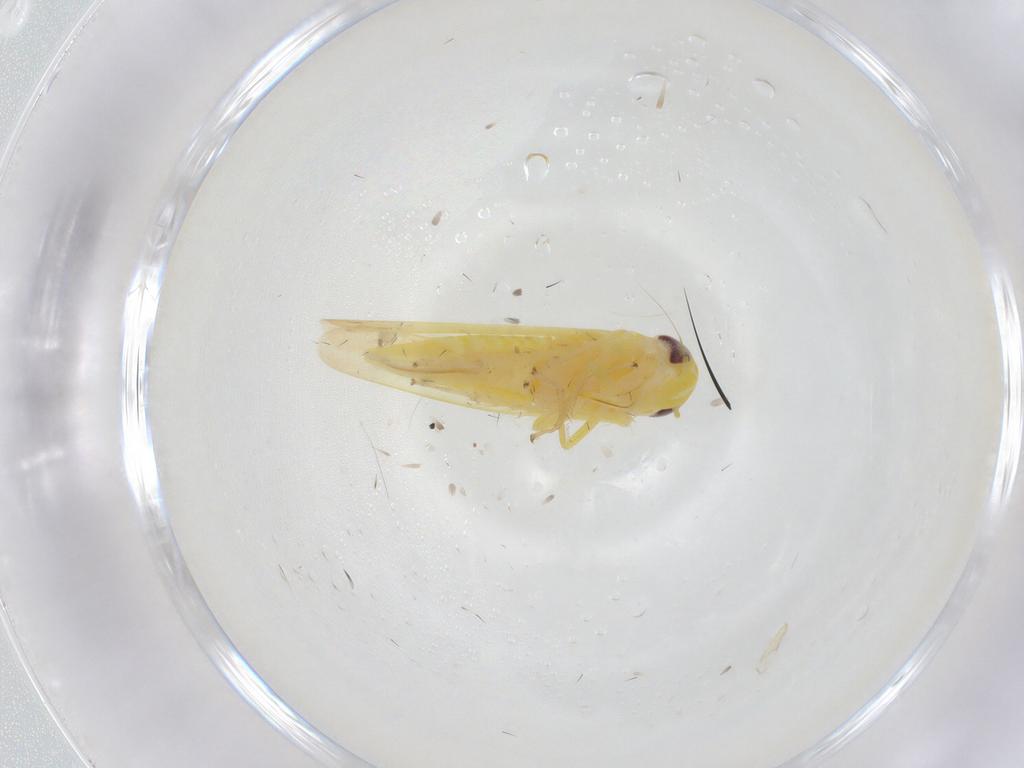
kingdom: Animalia
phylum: Arthropoda
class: Insecta
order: Hemiptera
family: Cicadellidae
